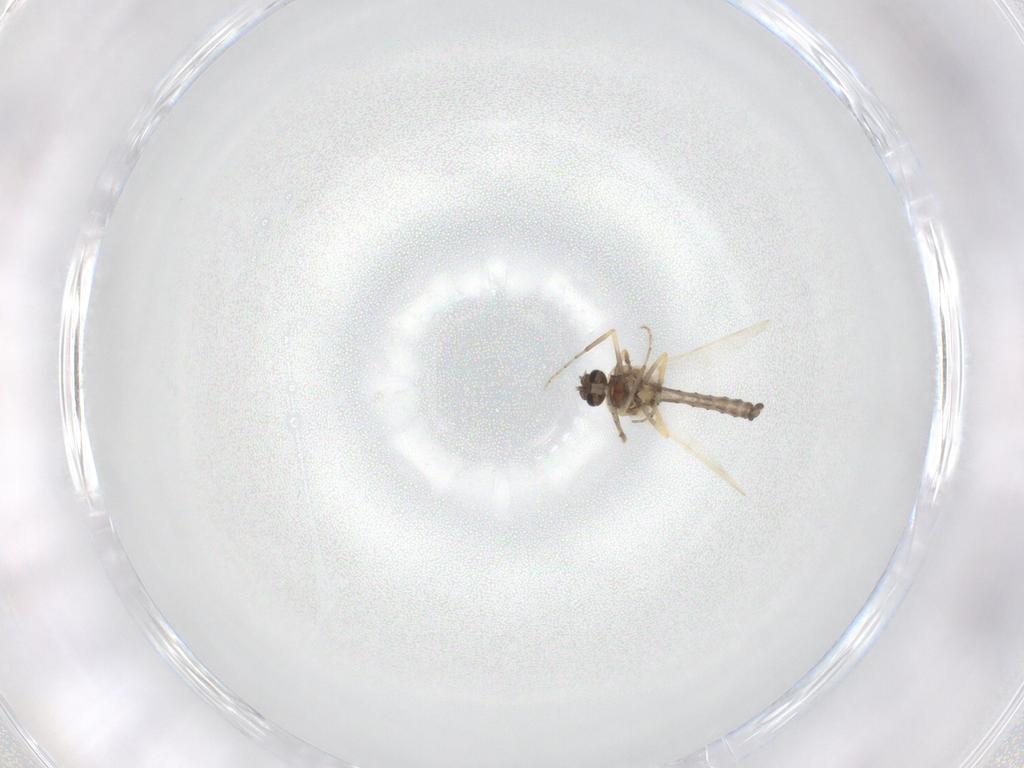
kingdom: Animalia
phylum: Arthropoda
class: Insecta
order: Diptera
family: Ceratopogonidae
